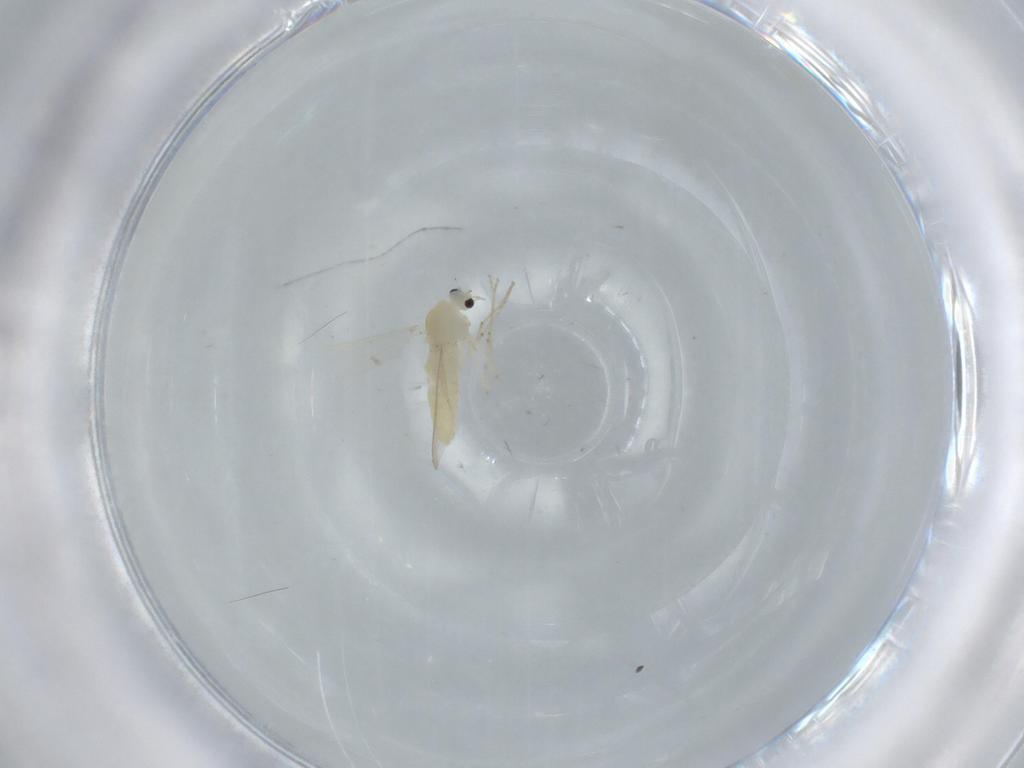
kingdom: Animalia
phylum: Arthropoda
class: Insecta
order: Diptera
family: Chironomidae
